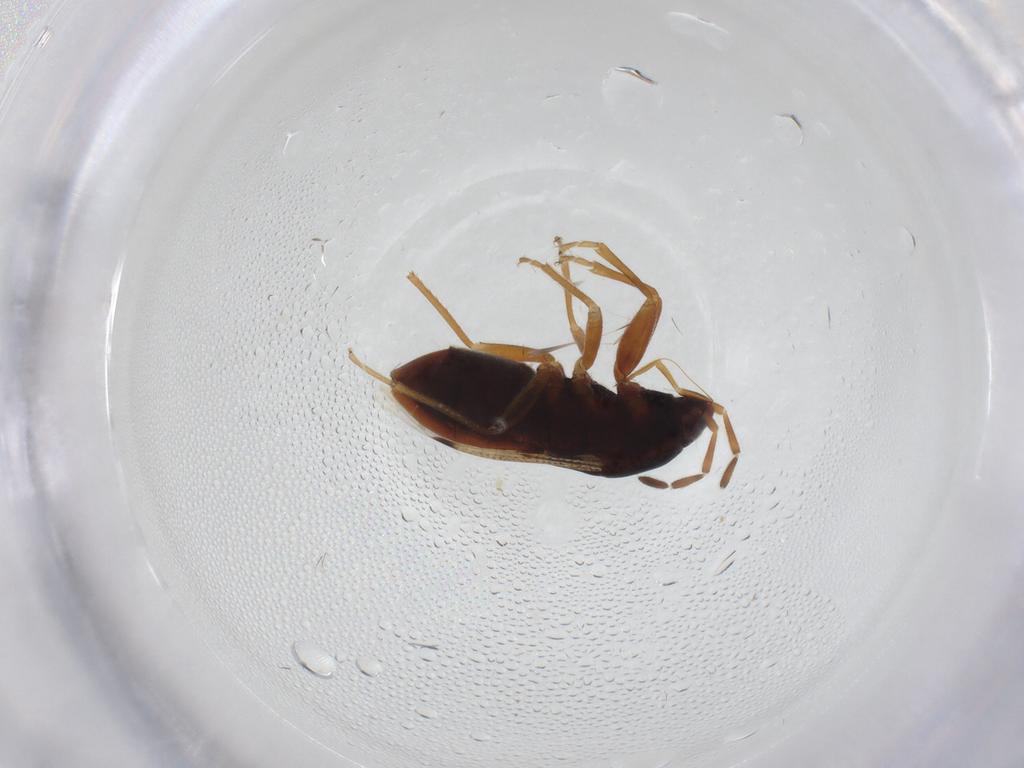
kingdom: Animalia
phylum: Arthropoda
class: Insecta
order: Hemiptera
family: Rhyparochromidae
